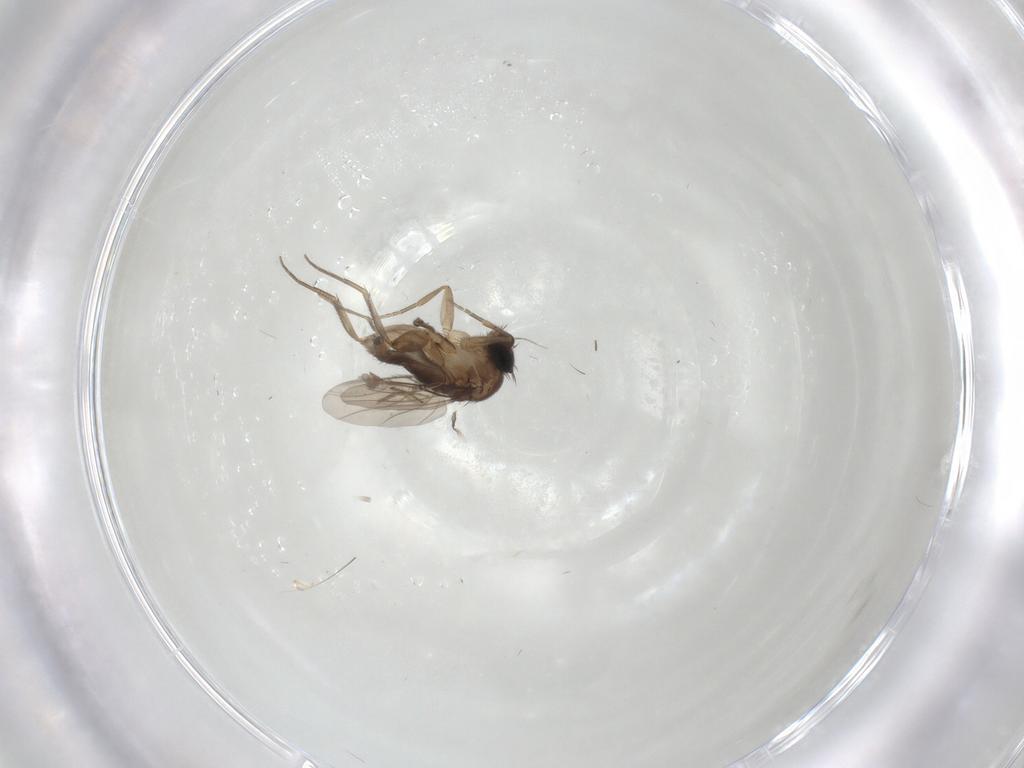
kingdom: Animalia
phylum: Arthropoda
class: Insecta
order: Diptera
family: Phoridae
